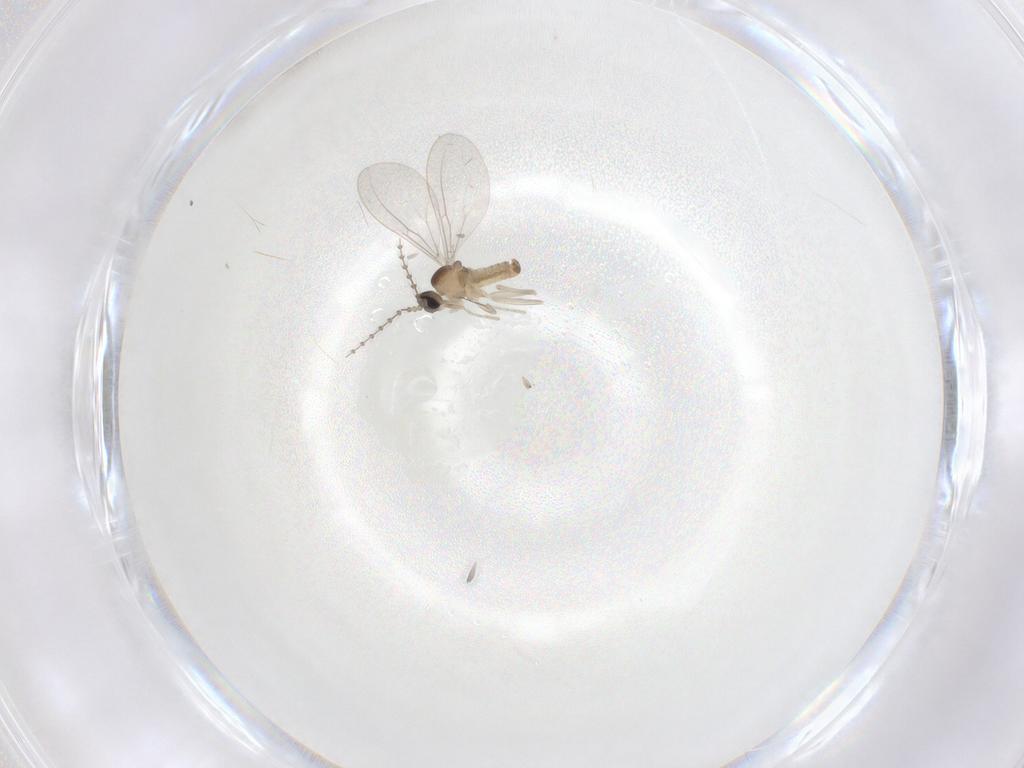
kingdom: Animalia
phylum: Arthropoda
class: Insecta
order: Diptera
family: Cecidomyiidae
